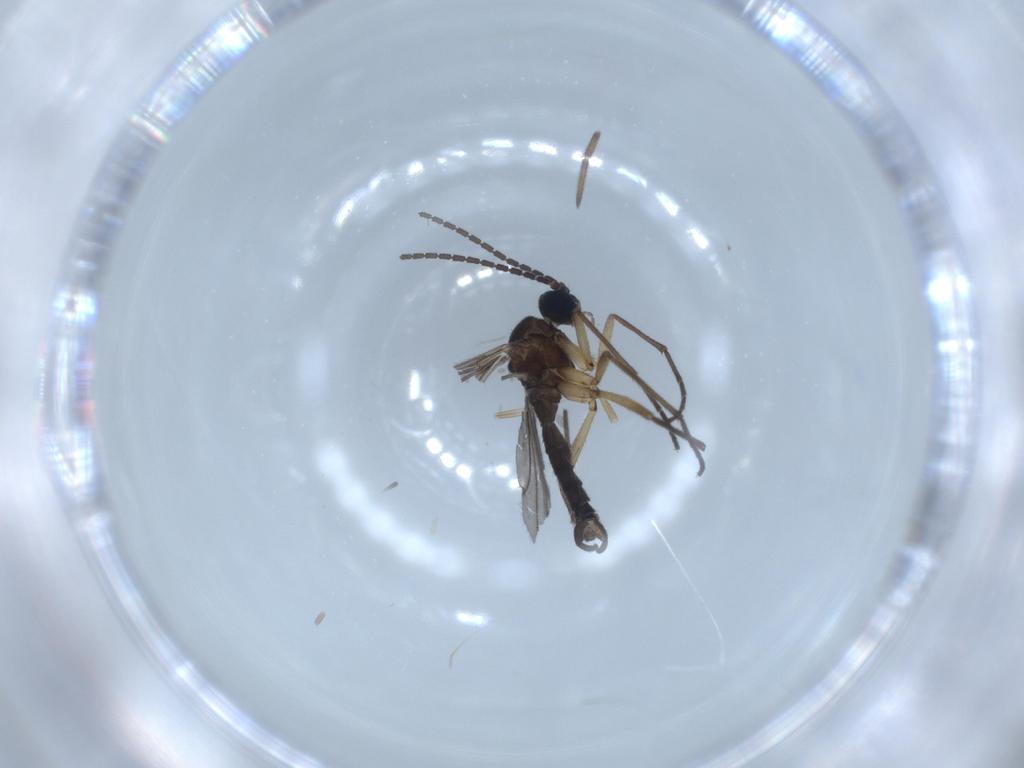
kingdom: Animalia
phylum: Arthropoda
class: Insecta
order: Diptera
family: Sciaridae
